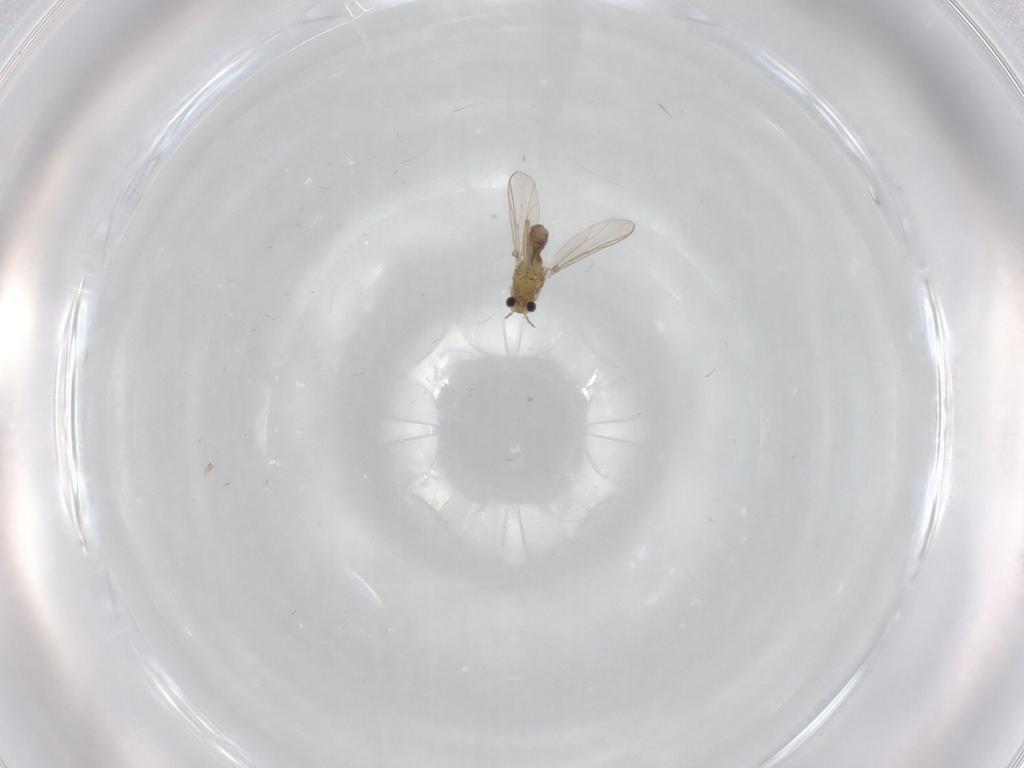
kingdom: Animalia
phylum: Arthropoda
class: Insecta
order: Diptera
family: Chironomidae
